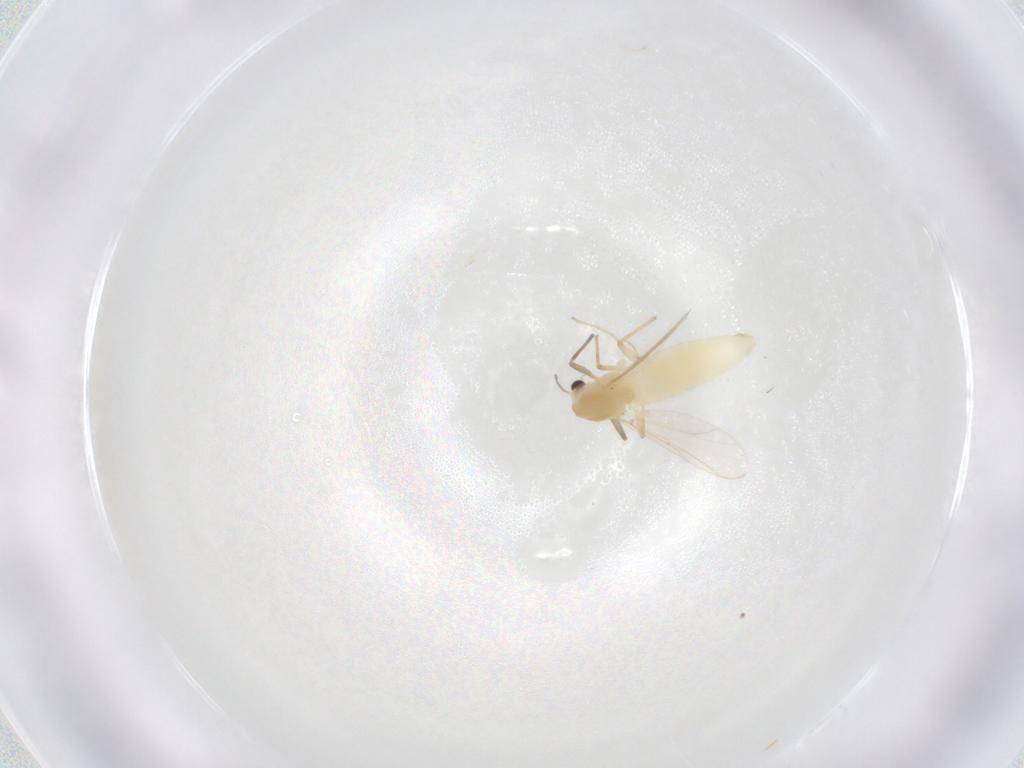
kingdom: Animalia
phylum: Arthropoda
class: Insecta
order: Diptera
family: Chironomidae
